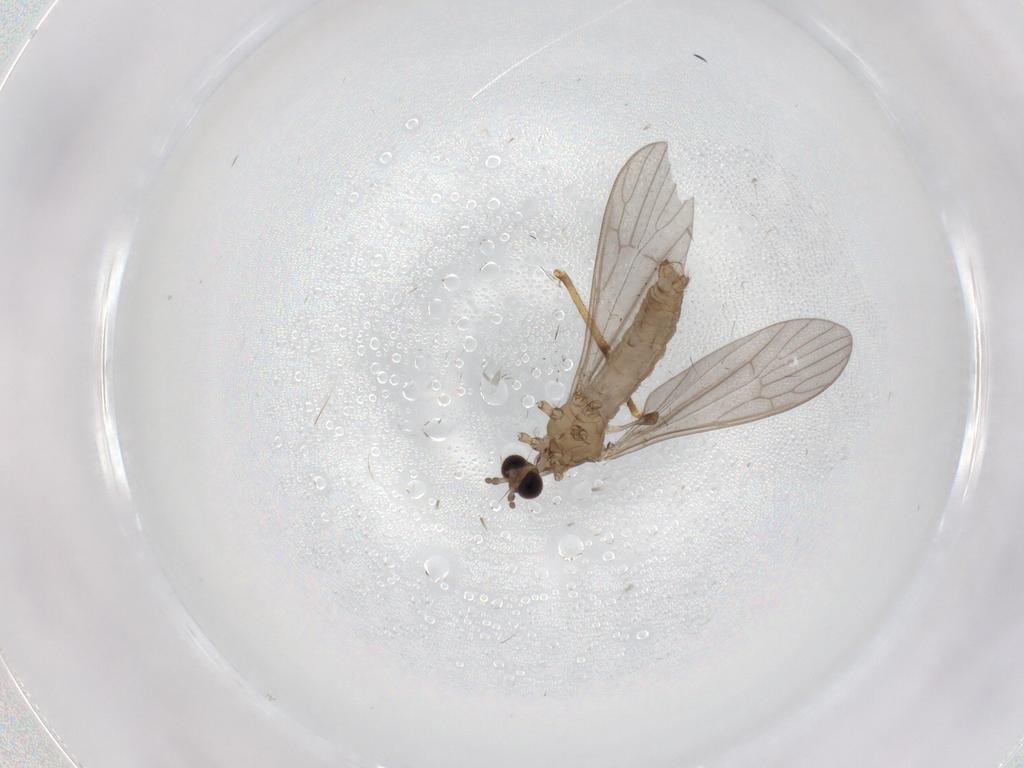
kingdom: Animalia
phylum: Arthropoda
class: Insecta
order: Diptera
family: Limoniidae
